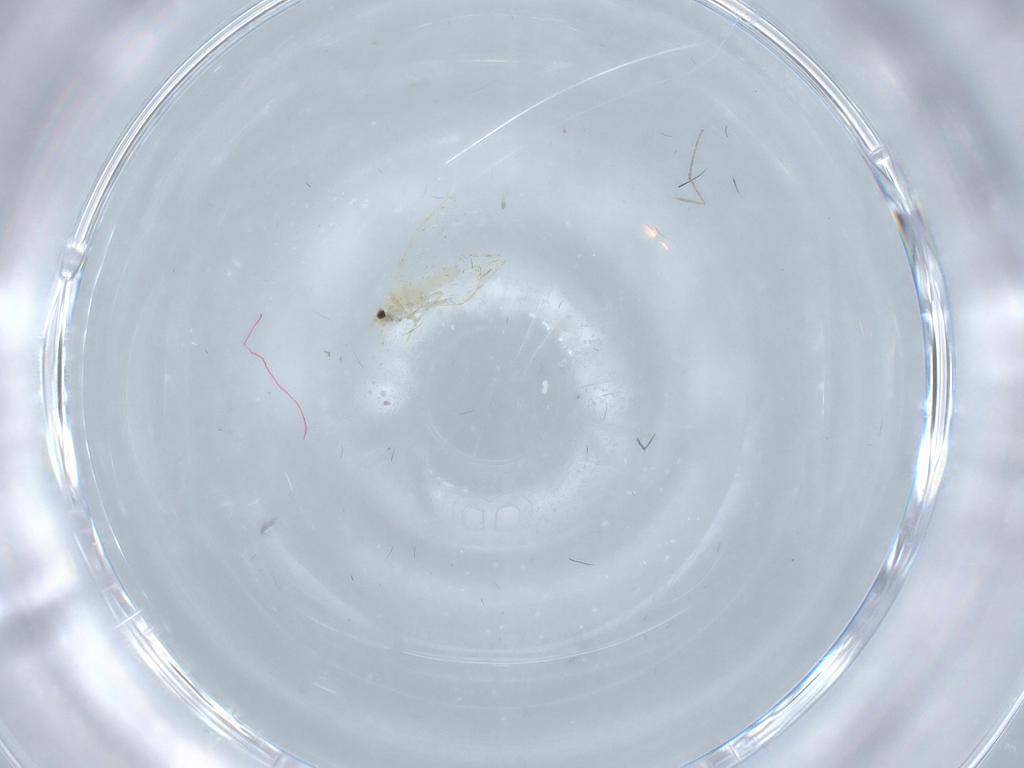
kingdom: Animalia
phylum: Arthropoda
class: Insecta
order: Hemiptera
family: Aleyrodidae
